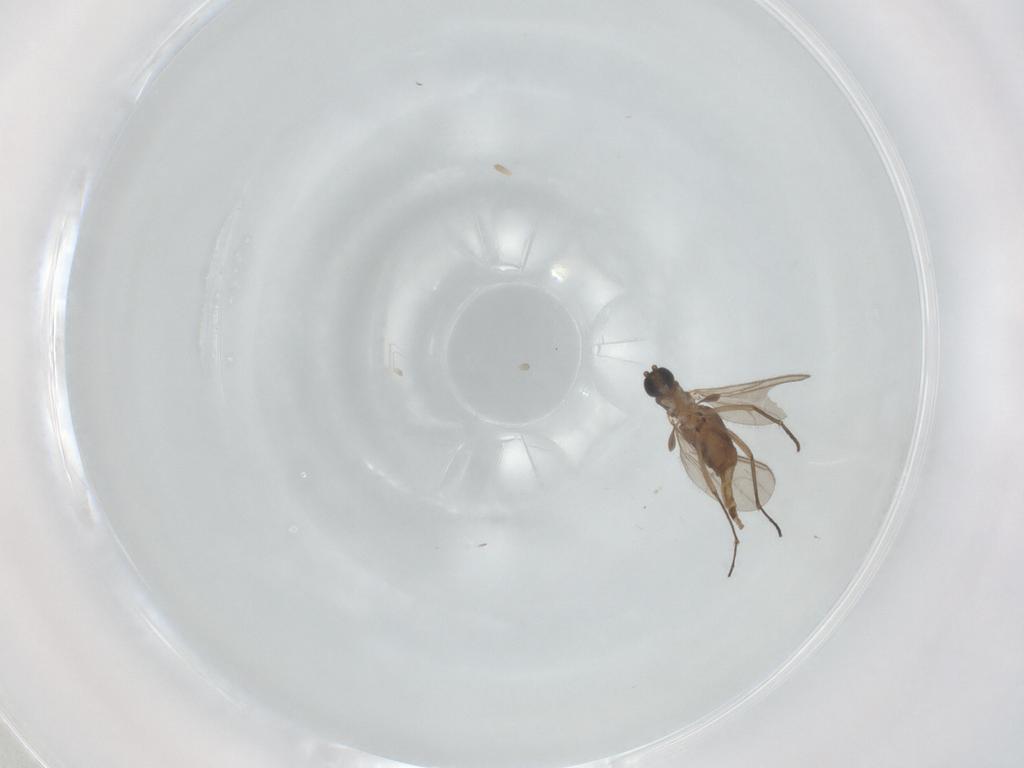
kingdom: Animalia
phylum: Arthropoda
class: Insecta
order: Diptera
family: Sciaridae
